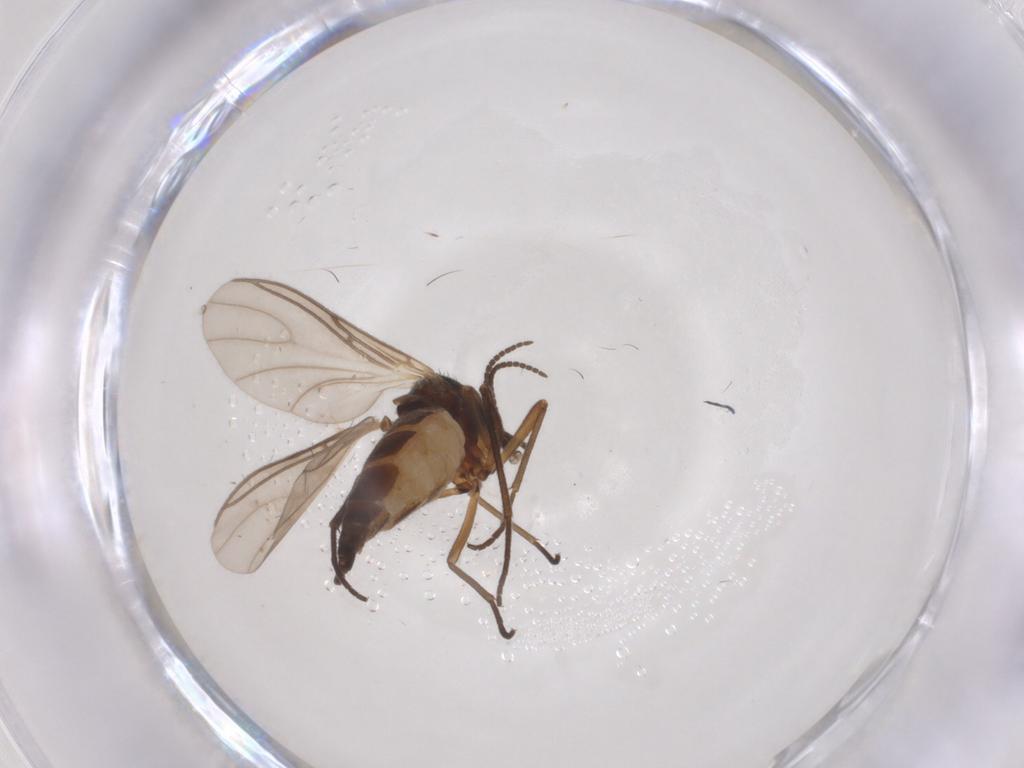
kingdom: Animalia
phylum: Arthropoda
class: Insecta
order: Diptera
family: Sciaridae
